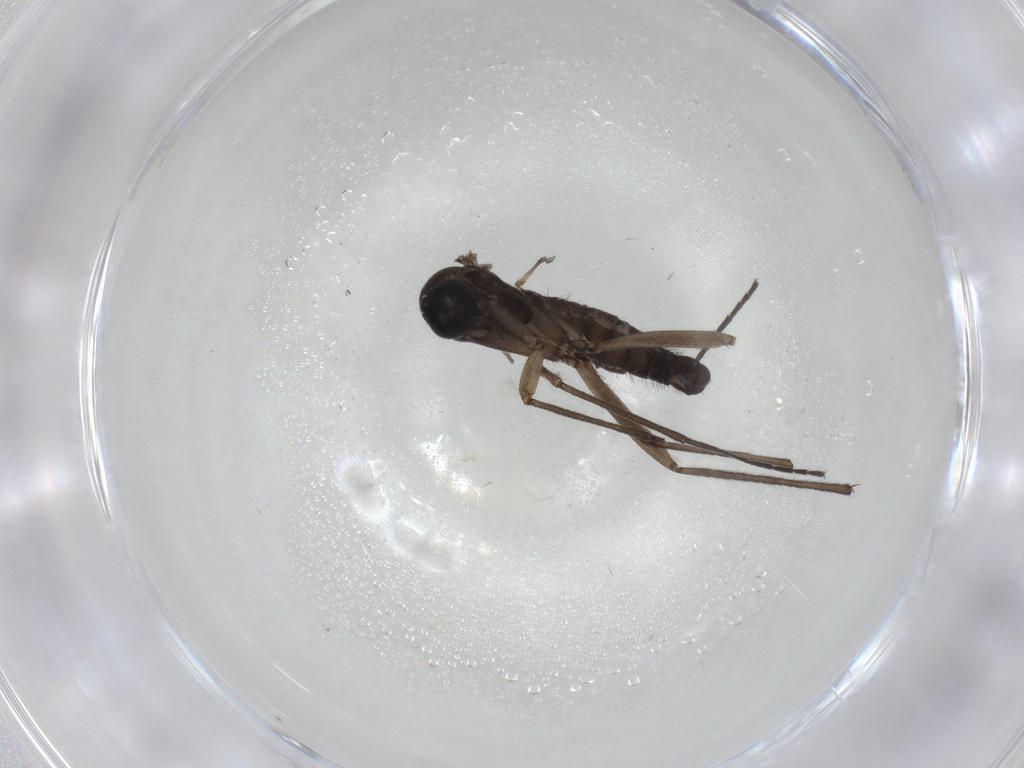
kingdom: Animalia
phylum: Arthropoda
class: Insecta
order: Diptera
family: Sciaridae
